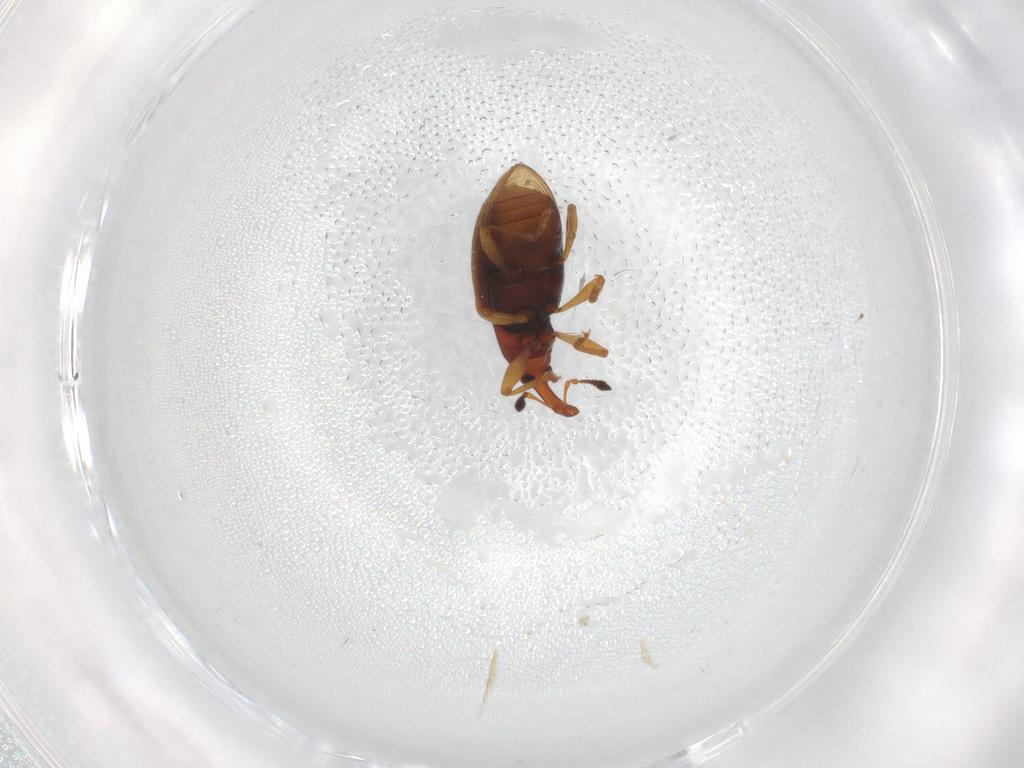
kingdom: Animalia
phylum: Arthropoda
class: Insecta
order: Coleoptera
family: Curculionidae
